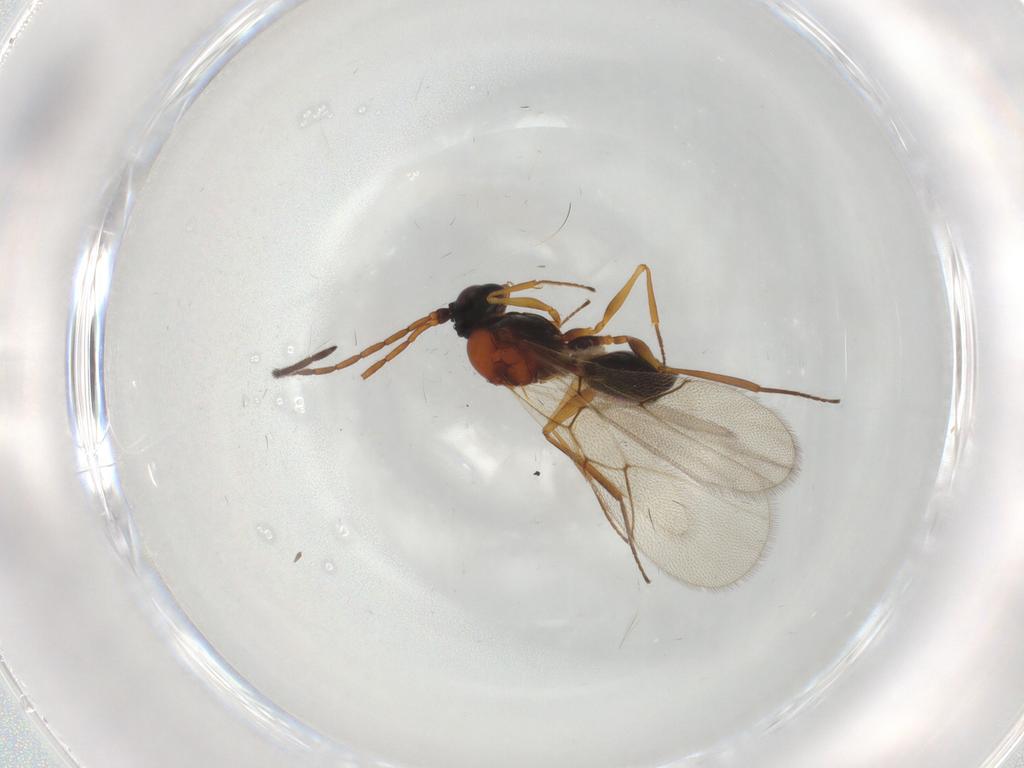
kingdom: Animalia
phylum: Arthropoda
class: Insecta
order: Hymenoptera
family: Figitidae
